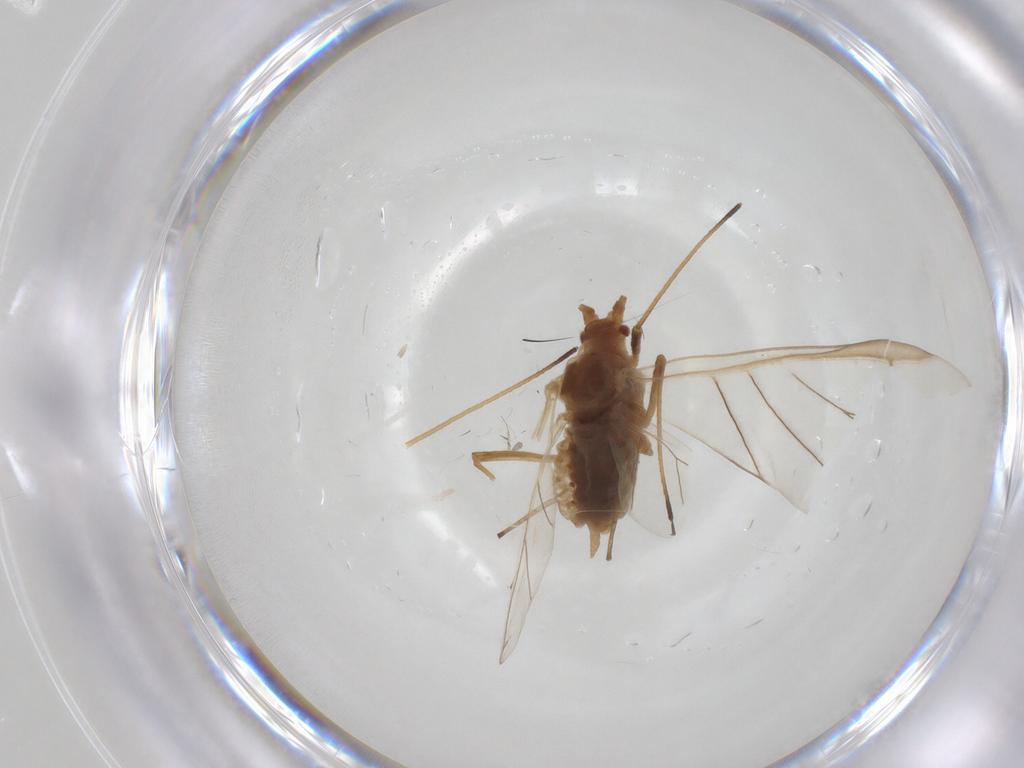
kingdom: Animalia
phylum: Arthropoda
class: Insecta
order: Hemiptera
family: Aphididae
